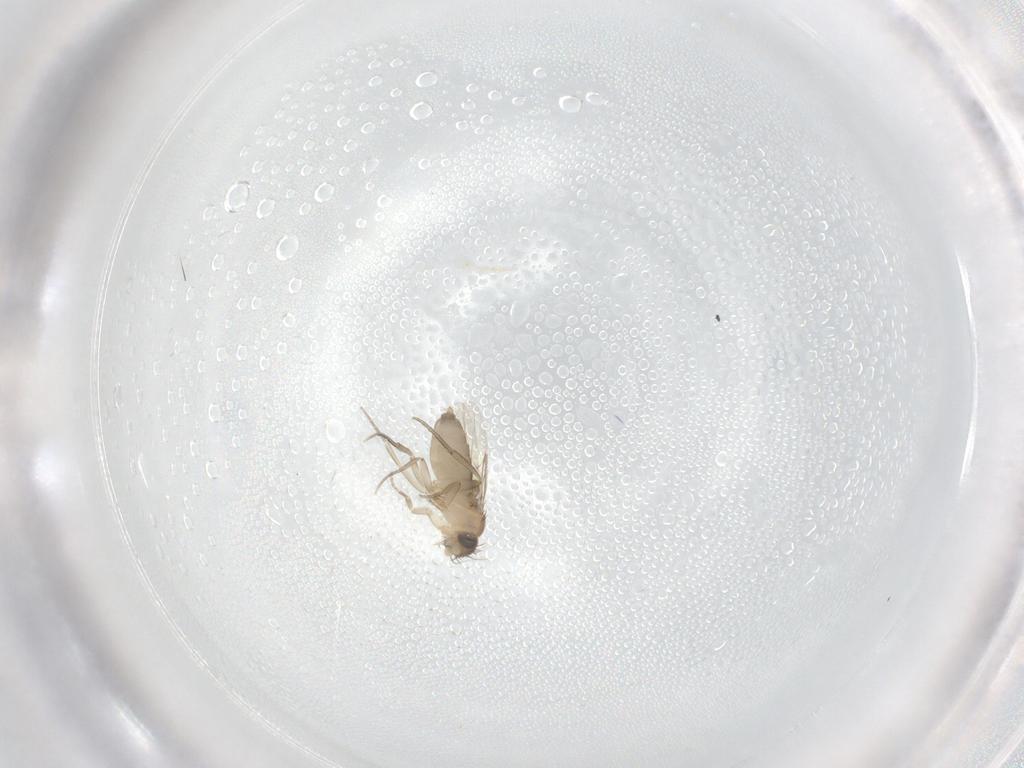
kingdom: Animalia
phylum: Arthropoda
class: Insecta
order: Diptera
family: Phoridae
